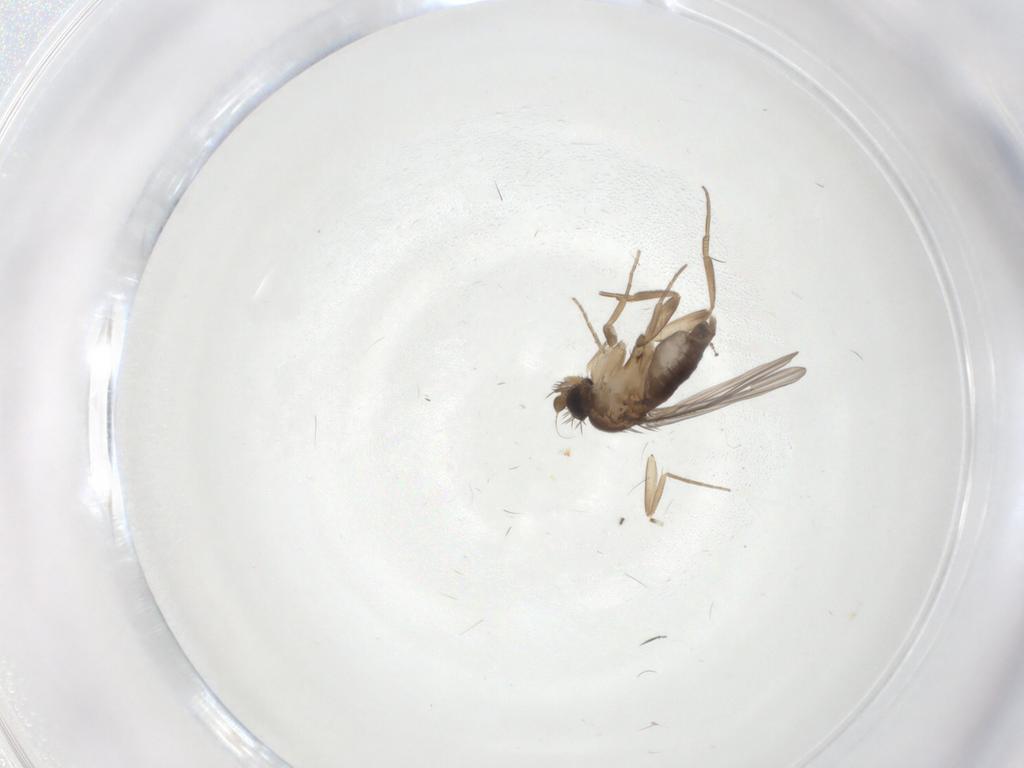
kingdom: Animalia
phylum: Arthropoda
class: Insecta
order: Diptera
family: Phoridae
